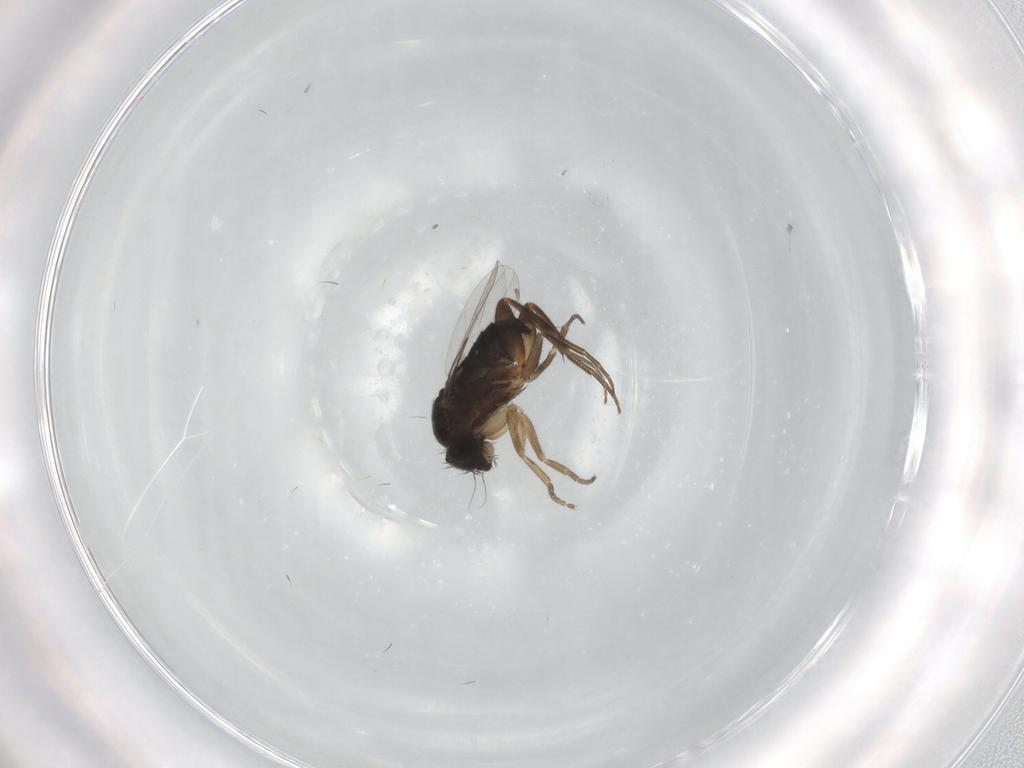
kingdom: Animalia
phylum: Arthropoda
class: Insecta
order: Diptera
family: Phoridae
